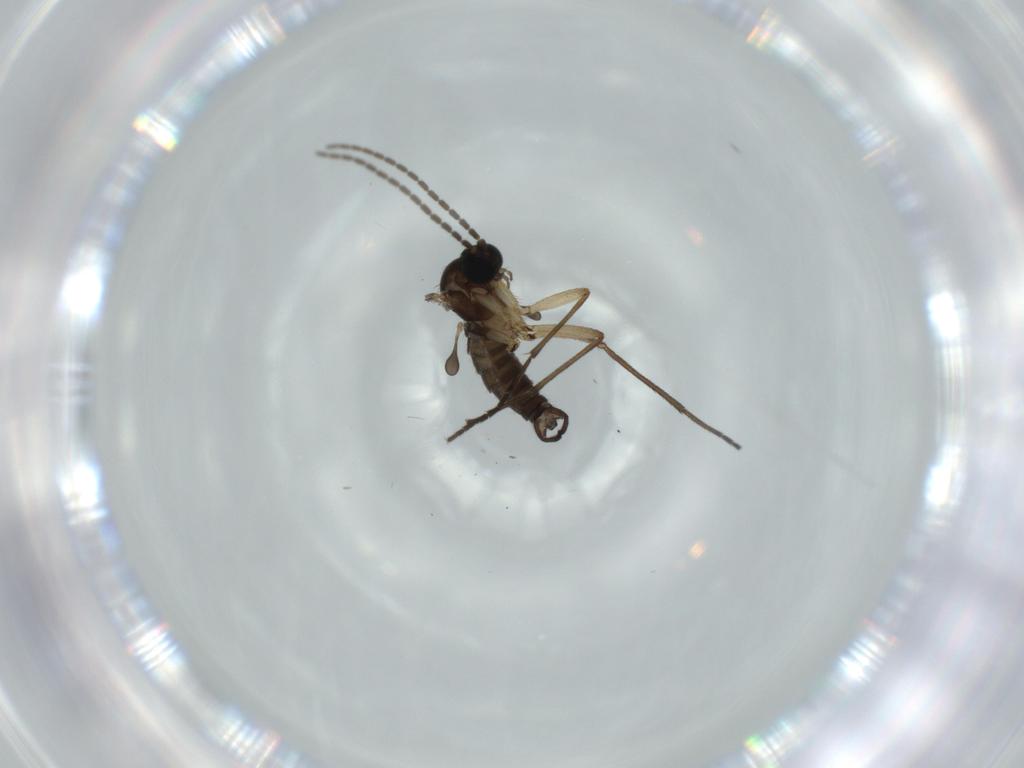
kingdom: Animalia
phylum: Arthropoda
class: Insecta
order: Diptera
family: Sciaridae
